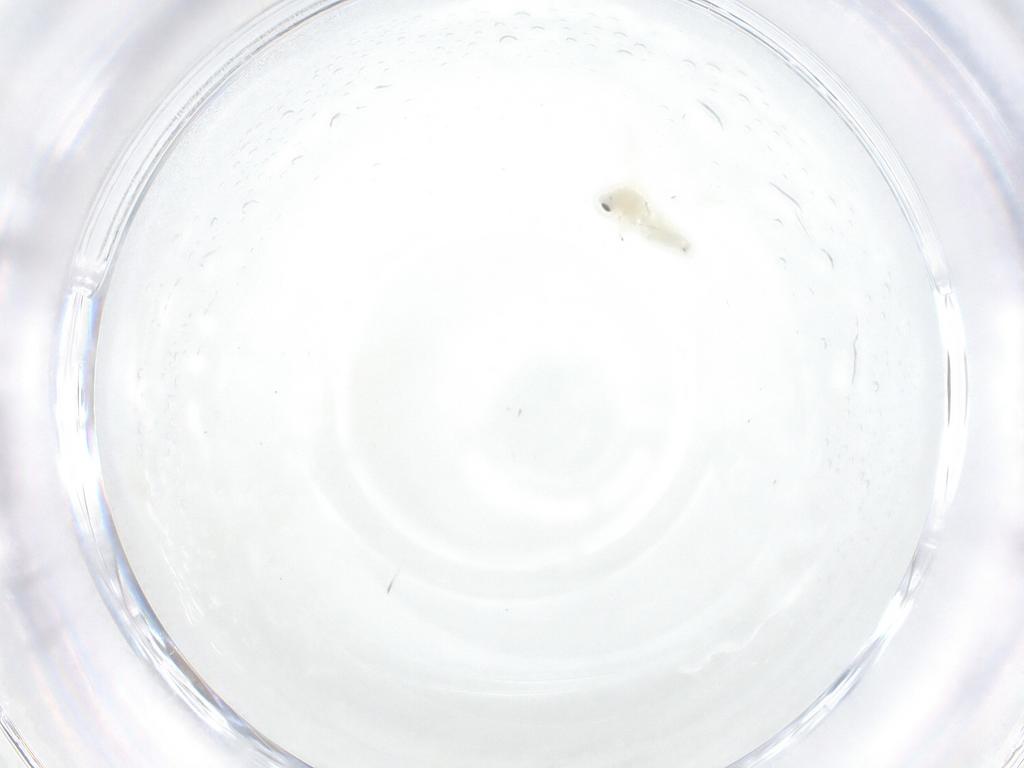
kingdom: Animalia
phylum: Arthropoda
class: Insecta
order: Hemiptera
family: Aleyrodidae
